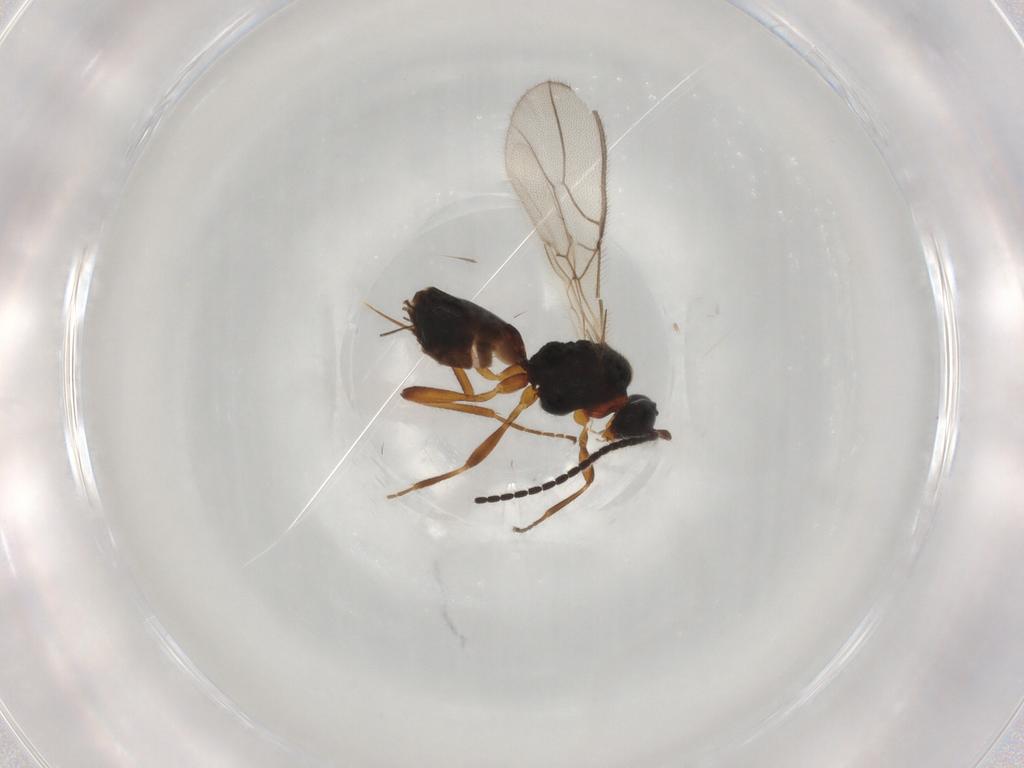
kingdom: Animalia
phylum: Arthropoda
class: Insecta
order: Hymenoptera
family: Braconidae
